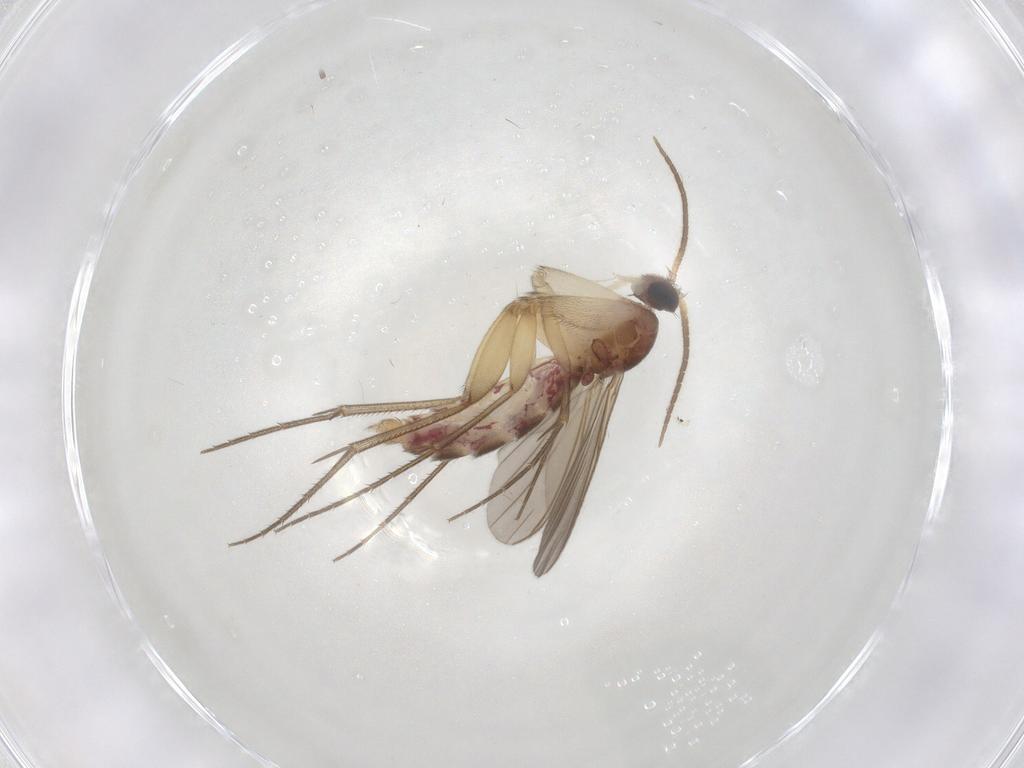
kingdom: Animalia
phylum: Arthropoda
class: Insecta
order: Diptera
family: Mycetophilidae
